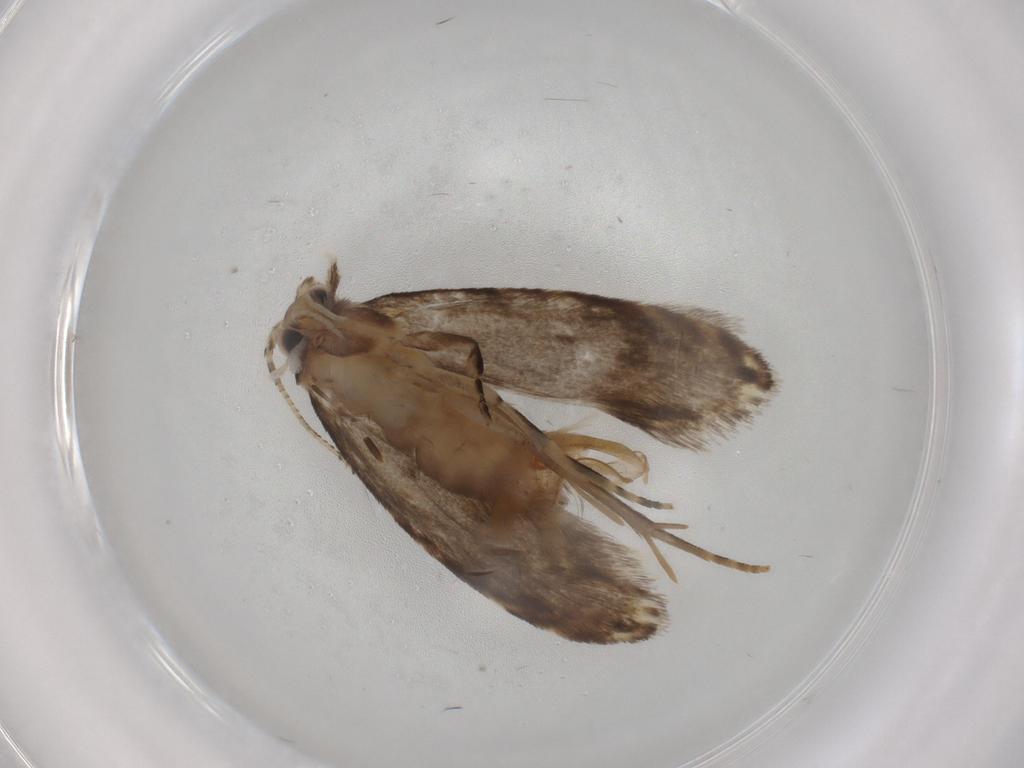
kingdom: Animalia
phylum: Arthropoda
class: Insecta
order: Lepidoptera
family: Tineidae
